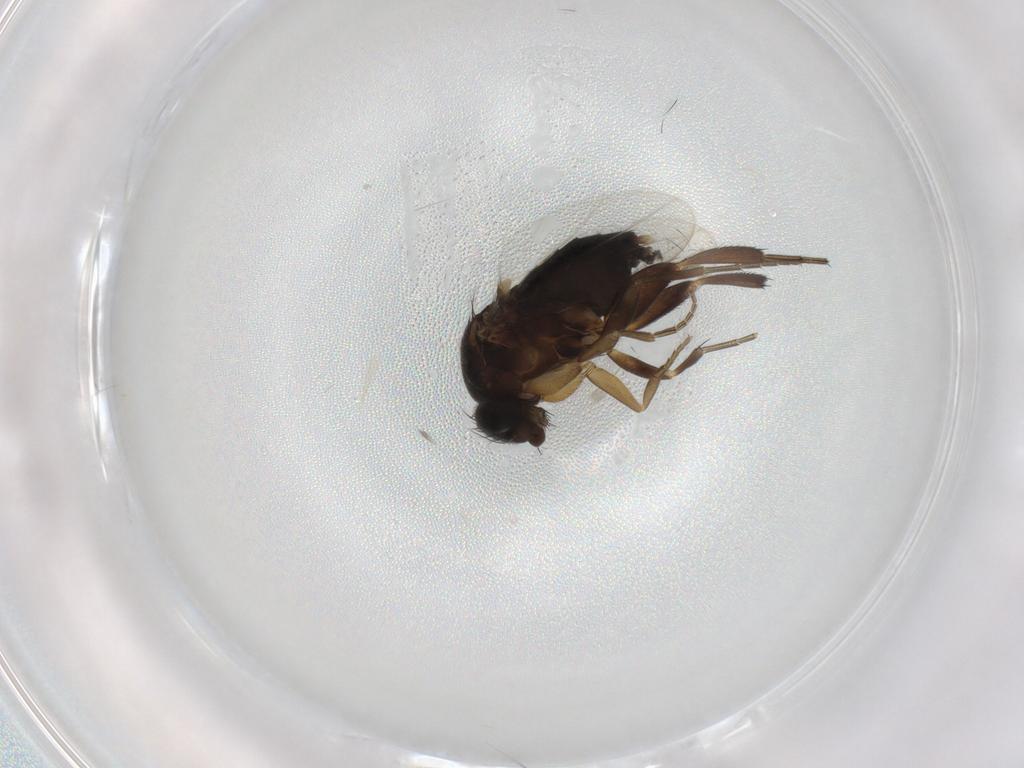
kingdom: Animalia
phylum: Arthropoda
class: Insecta
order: Diptera
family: Phoridae
